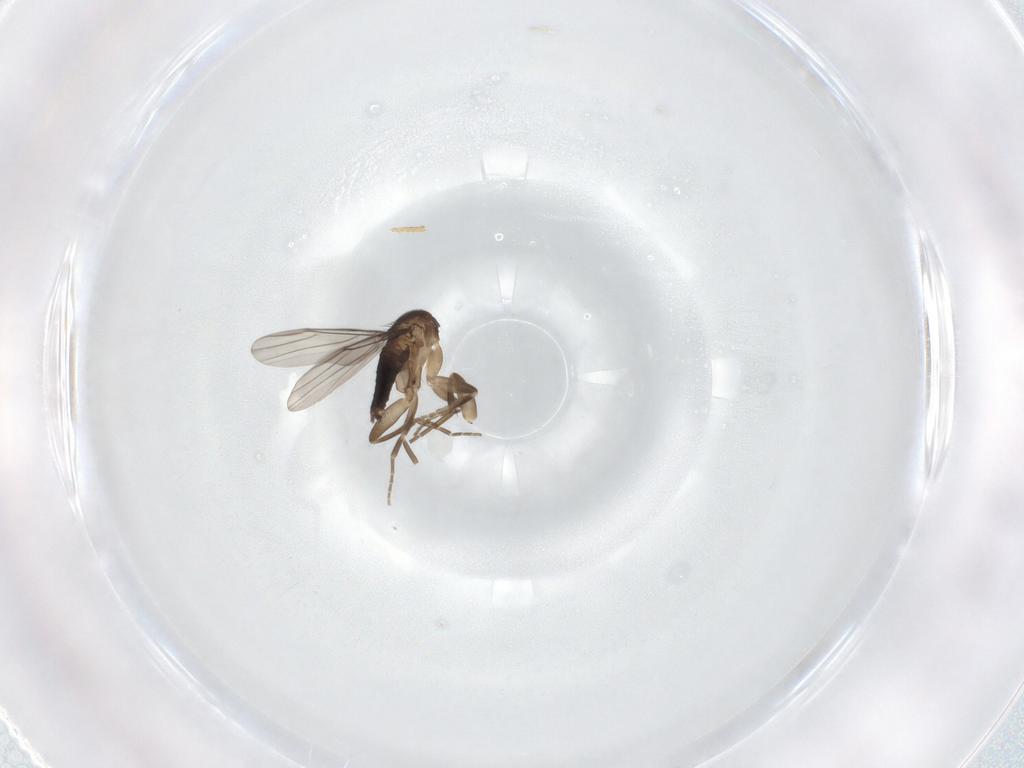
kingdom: Animalia
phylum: Arthropoda
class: Insecta
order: Diptera
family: Phoridae
